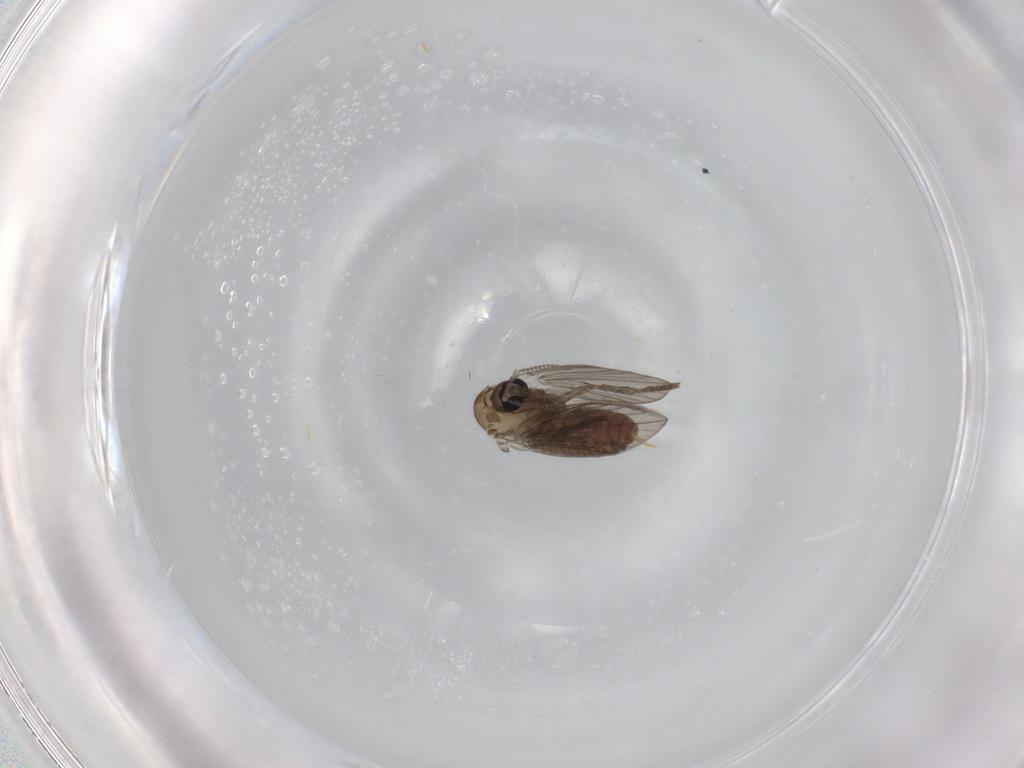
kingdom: Animalia
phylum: Arthropoda
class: Insecta
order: Diptera
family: Psychodidae
